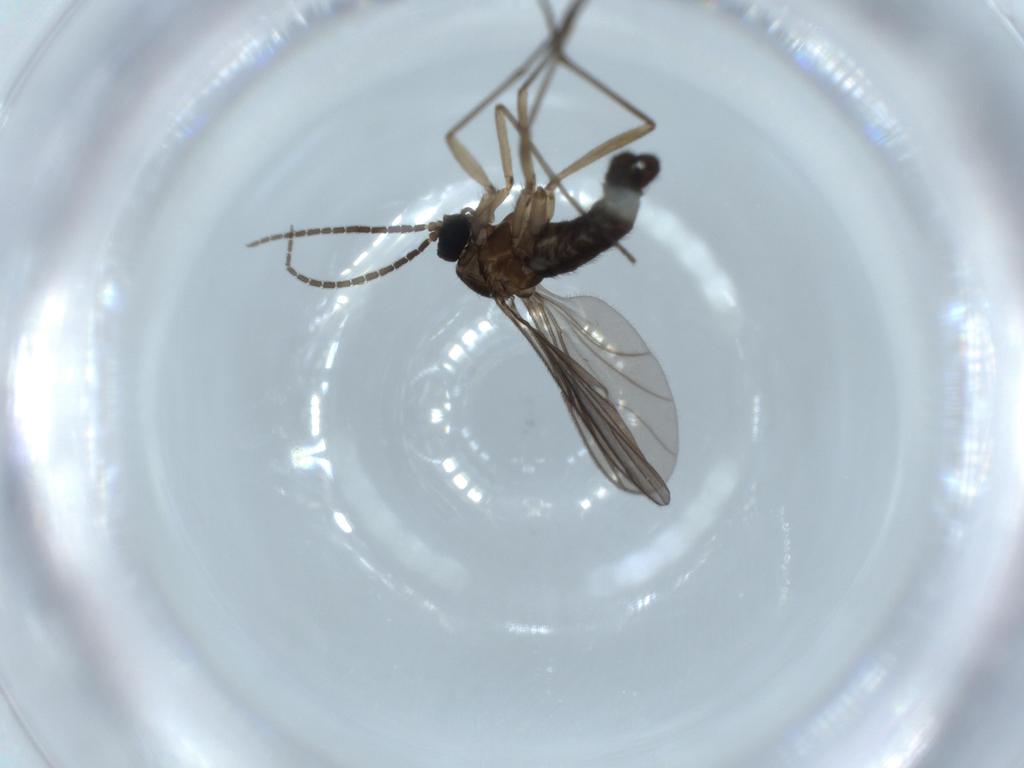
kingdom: Animalia
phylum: Arthropoda
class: Insecta
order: Diptera
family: Sciaridae
